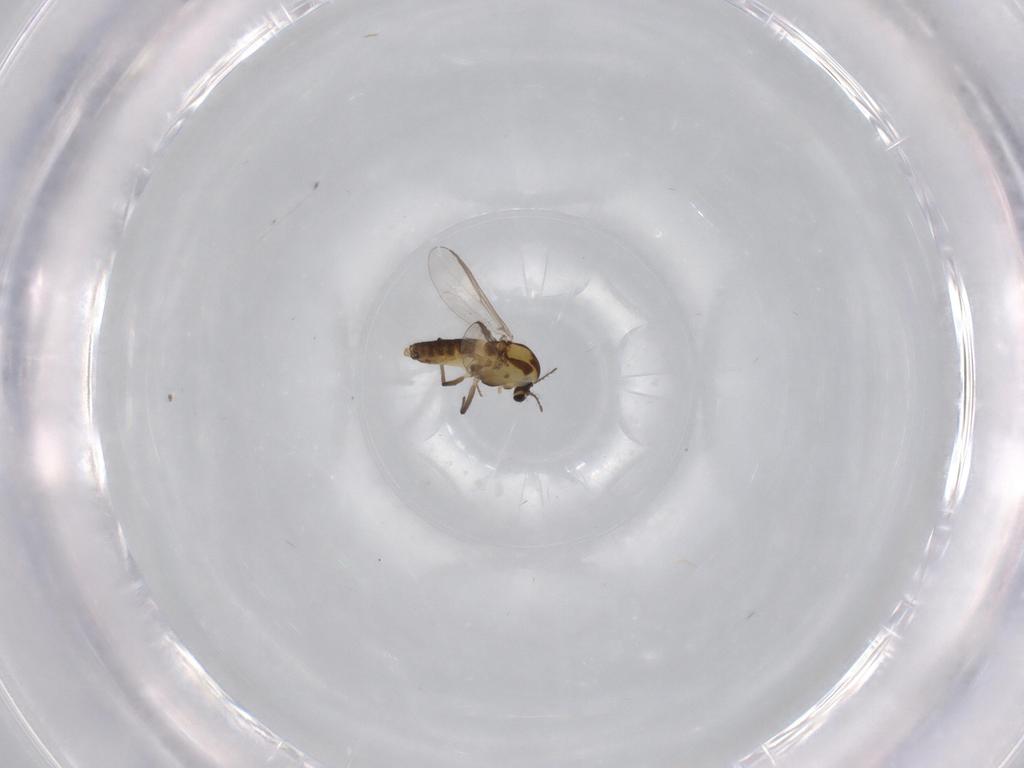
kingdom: Animalia
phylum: Arthropoda
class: Insecta
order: Diptera
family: Chironomidae
